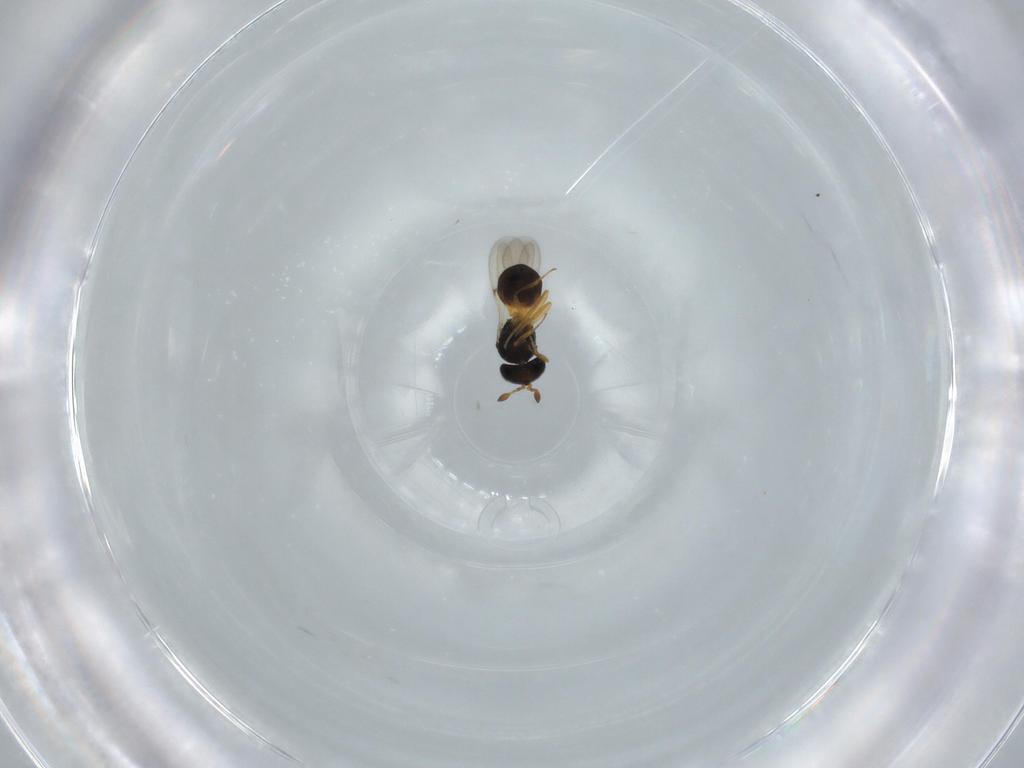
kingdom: Animalia
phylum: Arthropoda
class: Insecta
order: Hymenoptera
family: Scelionidae
